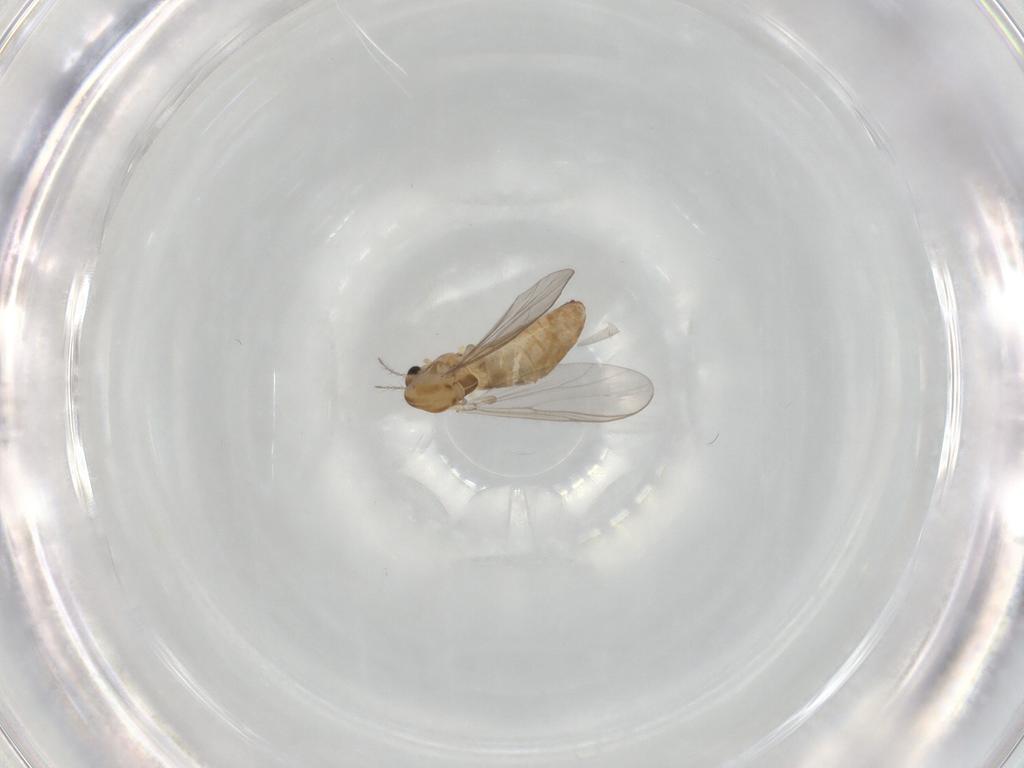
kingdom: Animalia
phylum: Arthropoda
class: Insecta
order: Diptera
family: Chironomidae
